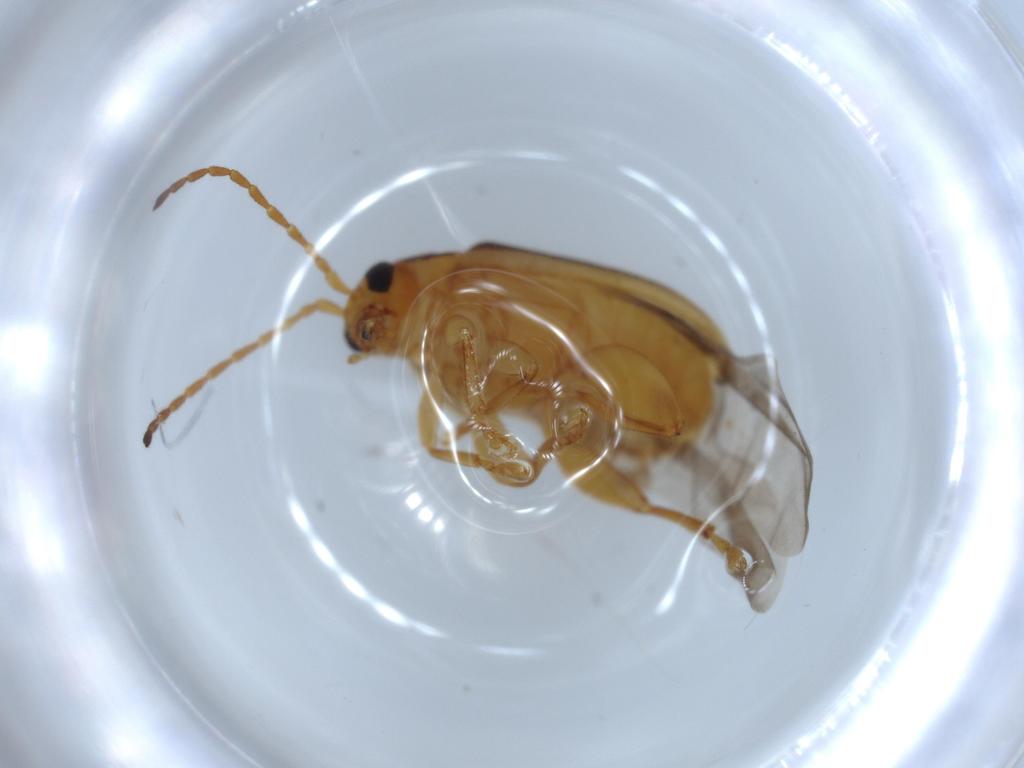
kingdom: Animalia
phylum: Arthropoda
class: Insecta
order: Coleoptera
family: Chrysomelidae
